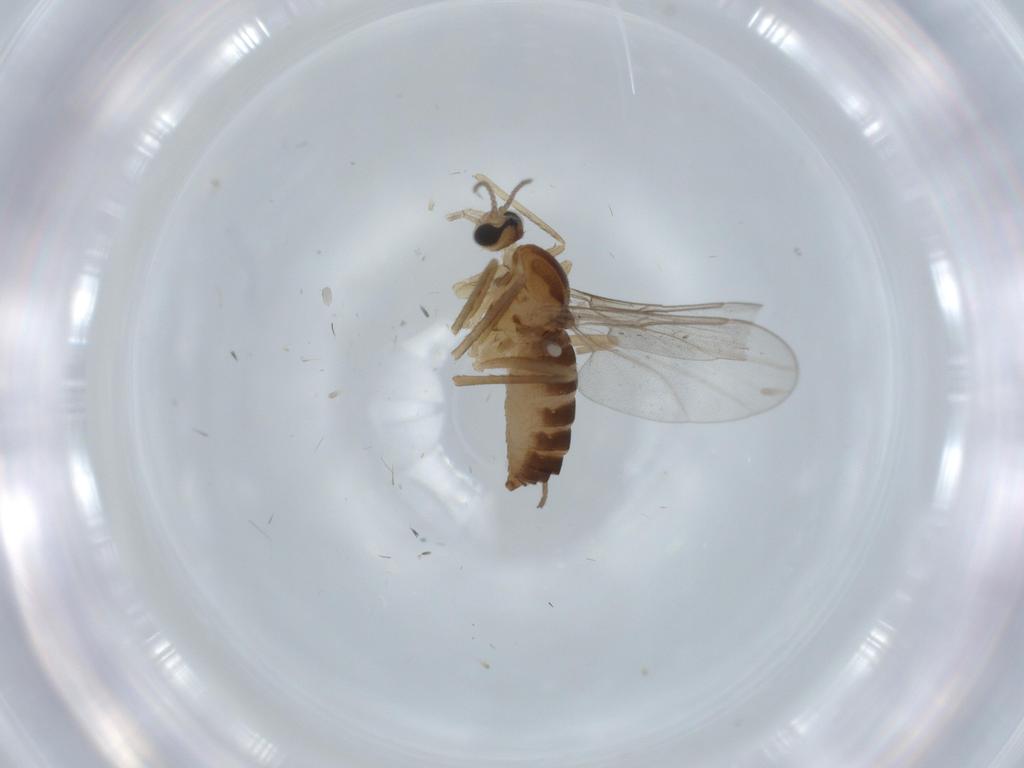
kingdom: Animalia
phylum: Arthropoda
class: Insecta
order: Diptera
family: Cecidomyiidae
